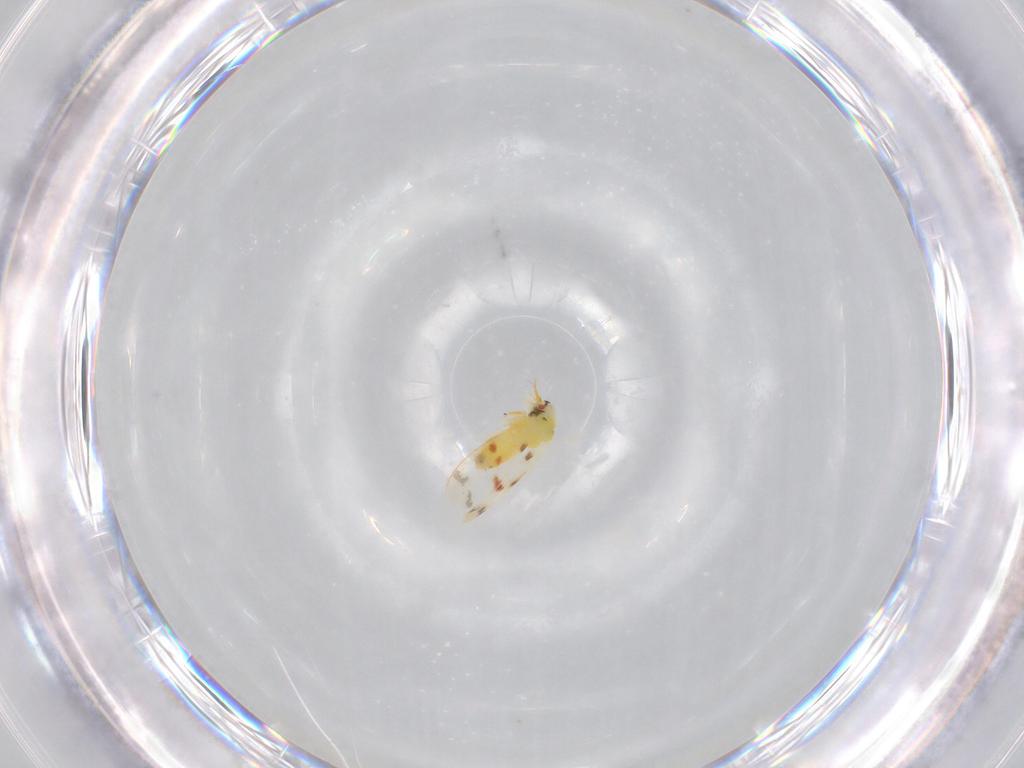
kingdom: Animalia
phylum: Arthropoda
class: Insecta
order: Hemiptera
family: Aleyrodidae
